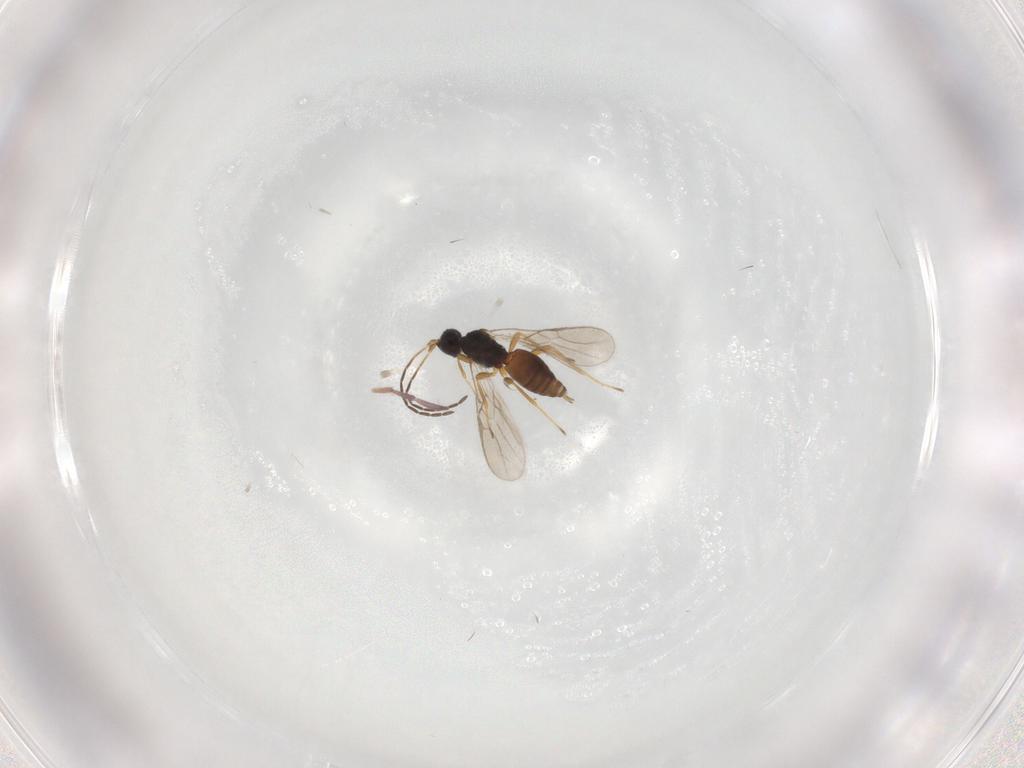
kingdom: Animalia
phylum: Arthropoda
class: Insecta
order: Hymenoptera
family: Braconidae
